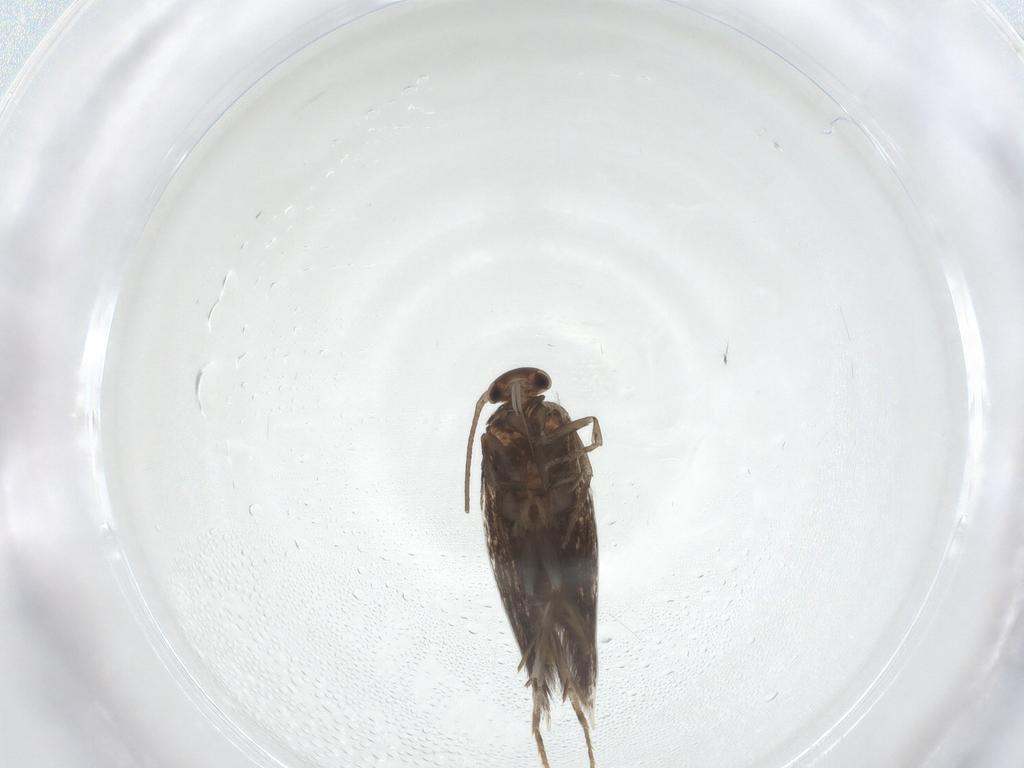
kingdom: Animalia
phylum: Arthropoda
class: Insecta
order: Lepidoptera
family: Elachistidae
